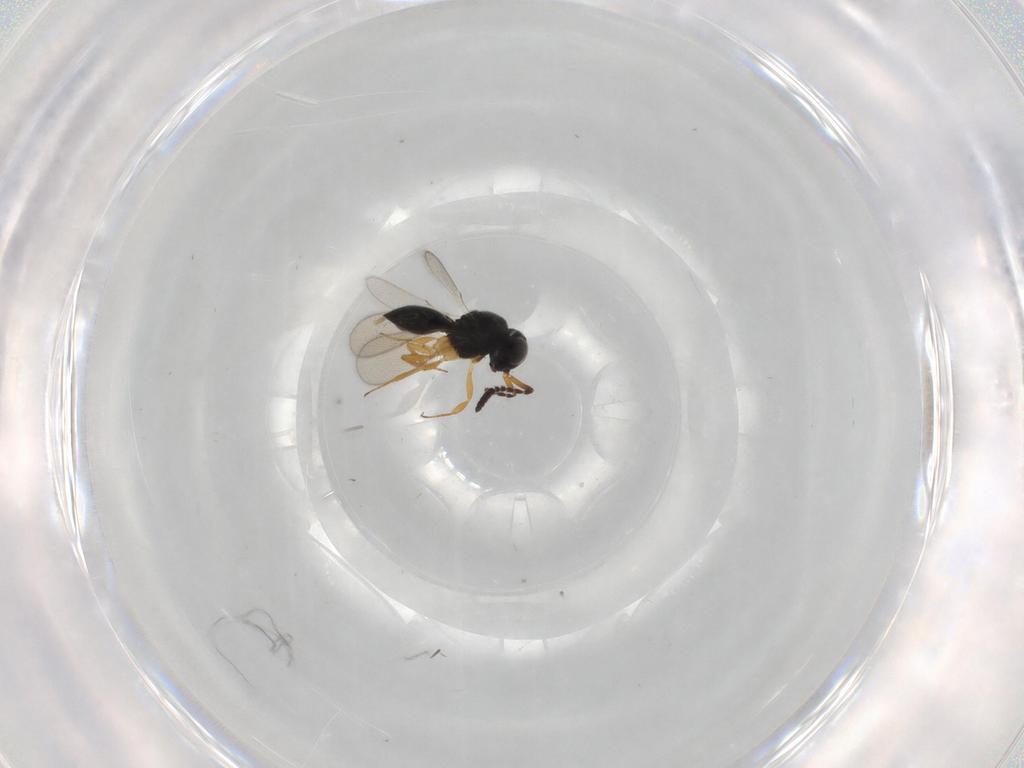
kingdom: Animalia
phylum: Arthropoda
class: Insecta
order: Hymenoptera
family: Scelionidae
